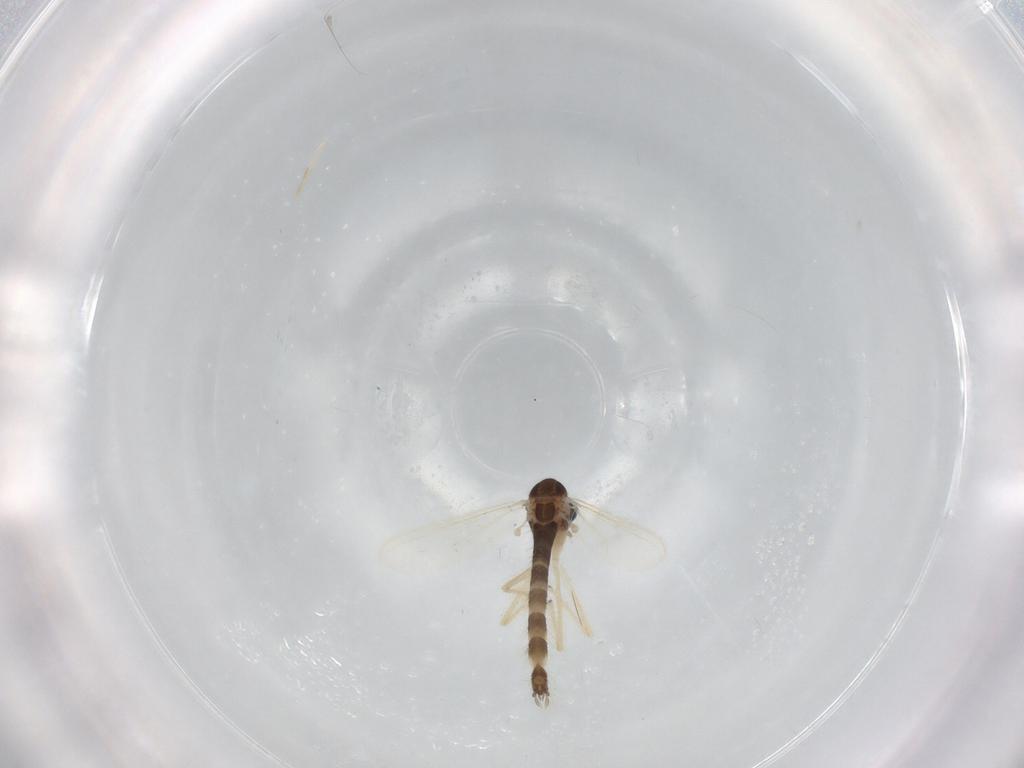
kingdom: Animalia
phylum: Arthropoda
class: Insecta
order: Diptera
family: Chironomidae
